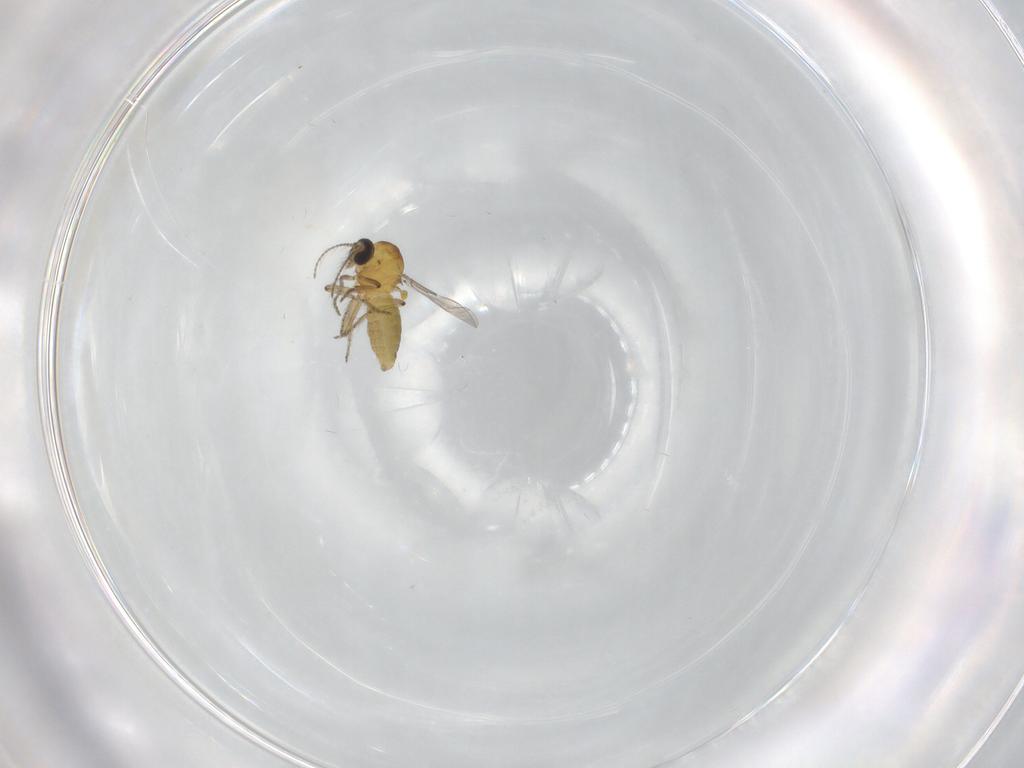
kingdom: Animalia
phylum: Arthropoda
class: Insecta
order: Diptera
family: Ceratopogonidae
